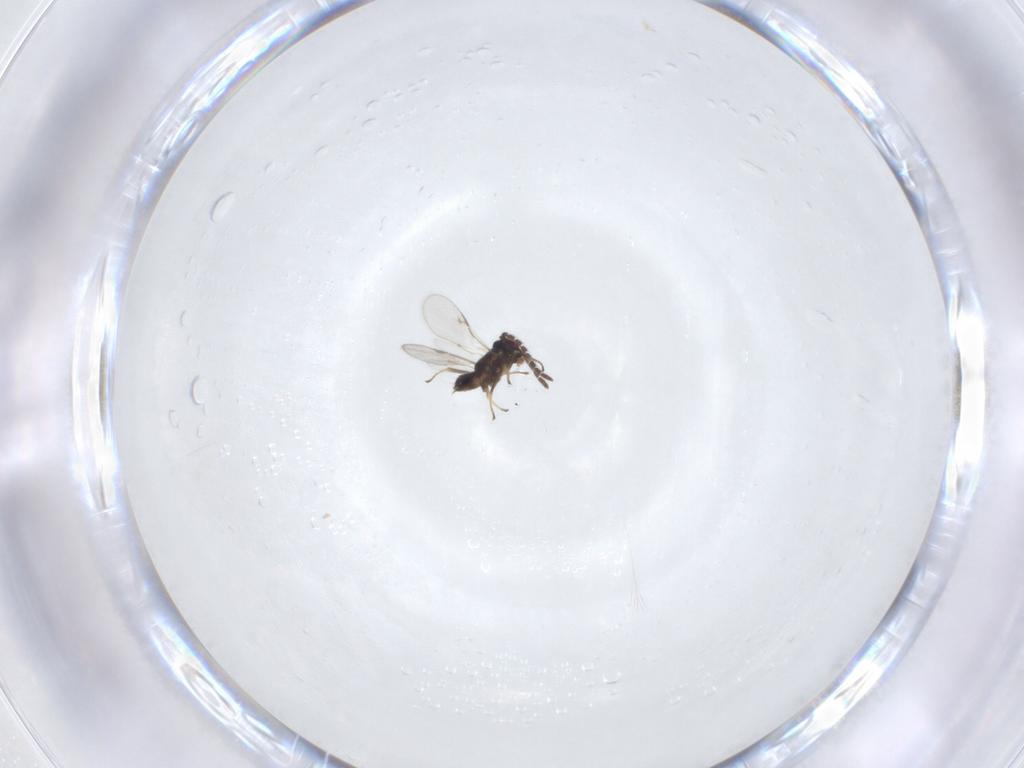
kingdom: Animalia
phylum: Arthropoda
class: Insecta
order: Hymenoptera
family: Encyrtidae
